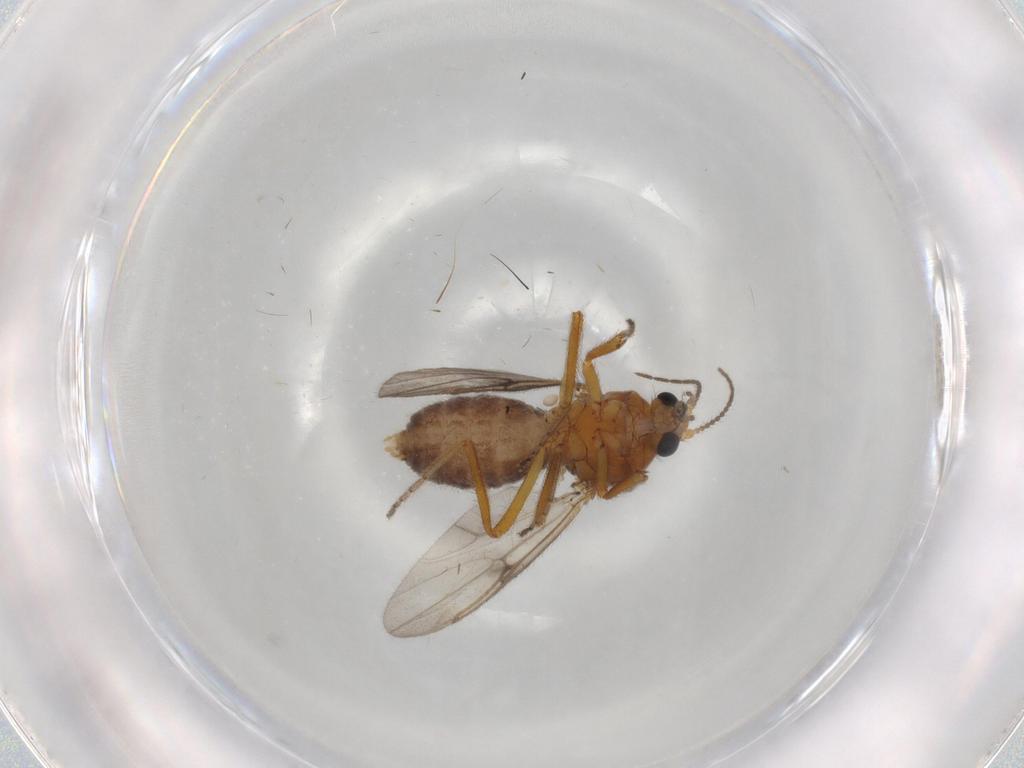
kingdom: Animalia
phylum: Arthropoda
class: Insecta
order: Diptera
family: Ceratopogonidae
